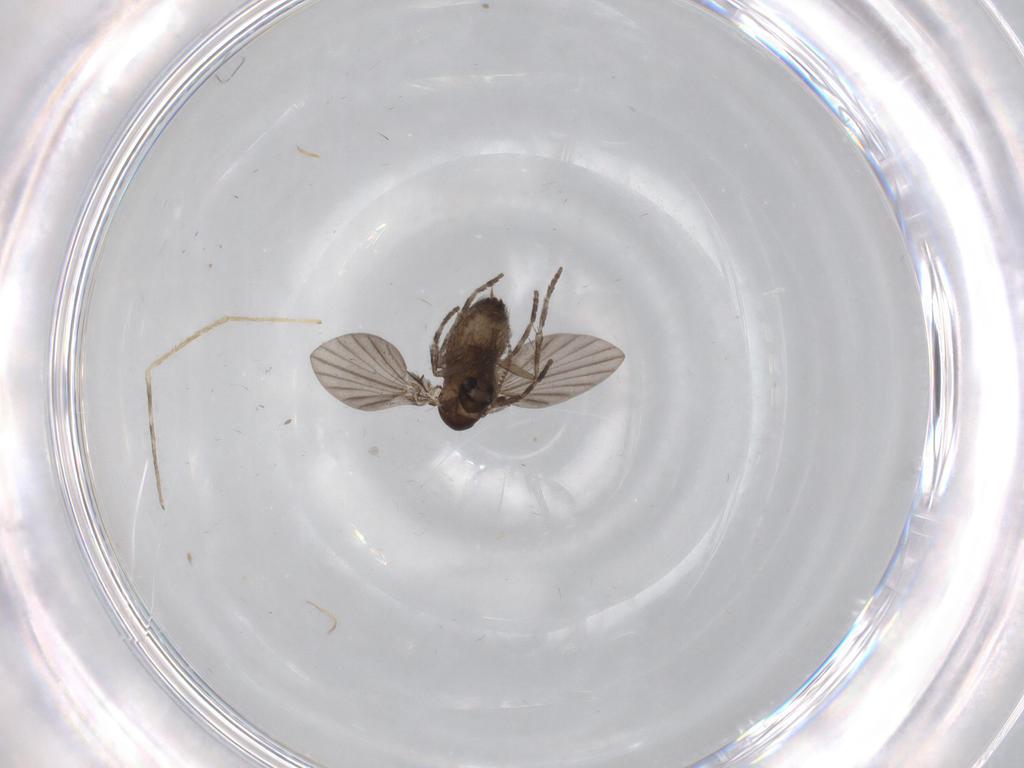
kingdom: Animalia
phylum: Arthropoda
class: Insecta
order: Diptera
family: Psychodidae
